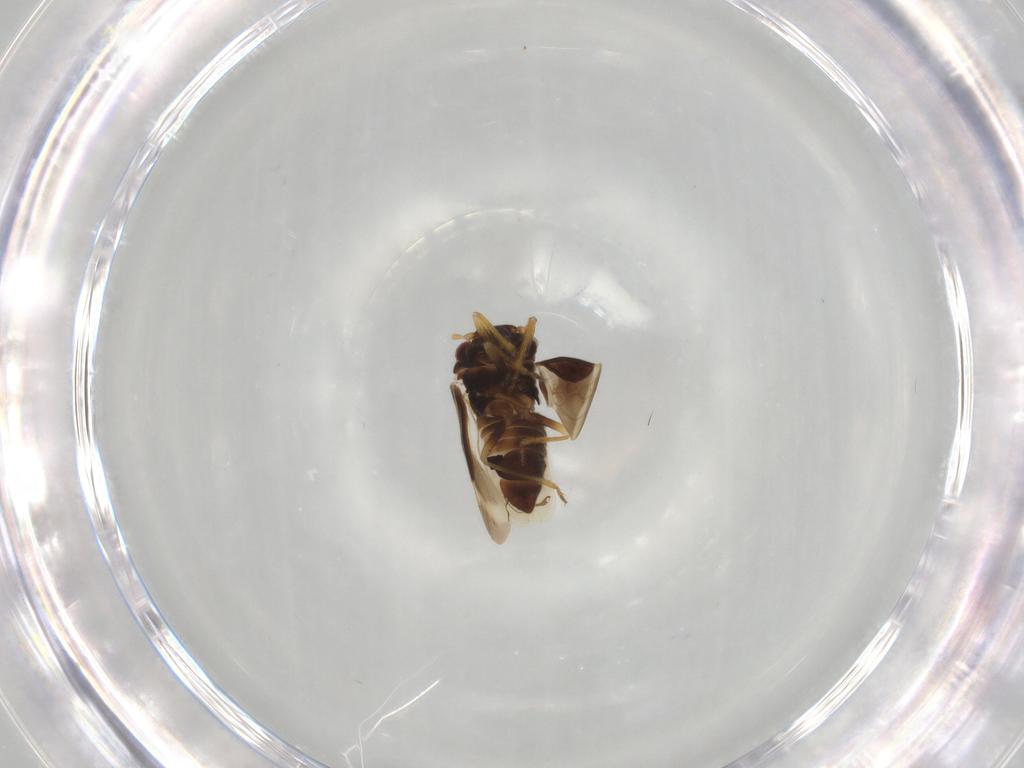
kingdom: Animalia
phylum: Arthropoda
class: Insecta
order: Hemiptera
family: Schizopteridae
